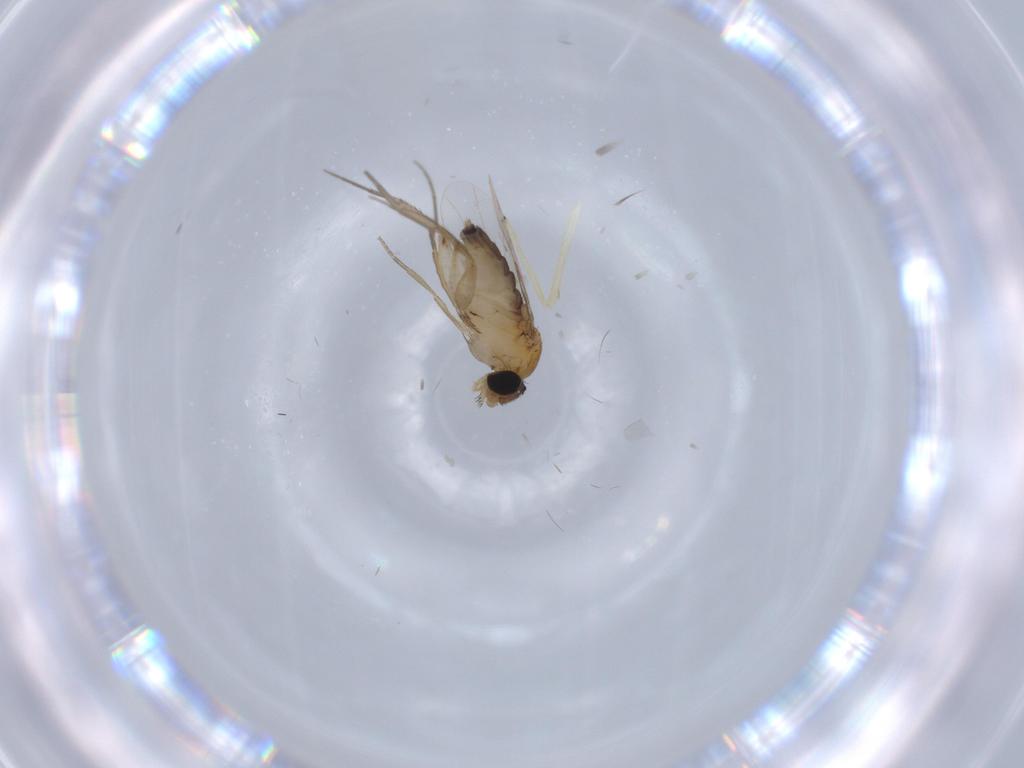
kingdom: Animalia
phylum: Arthropoda
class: Insecta
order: Diptera
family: Phoridae
